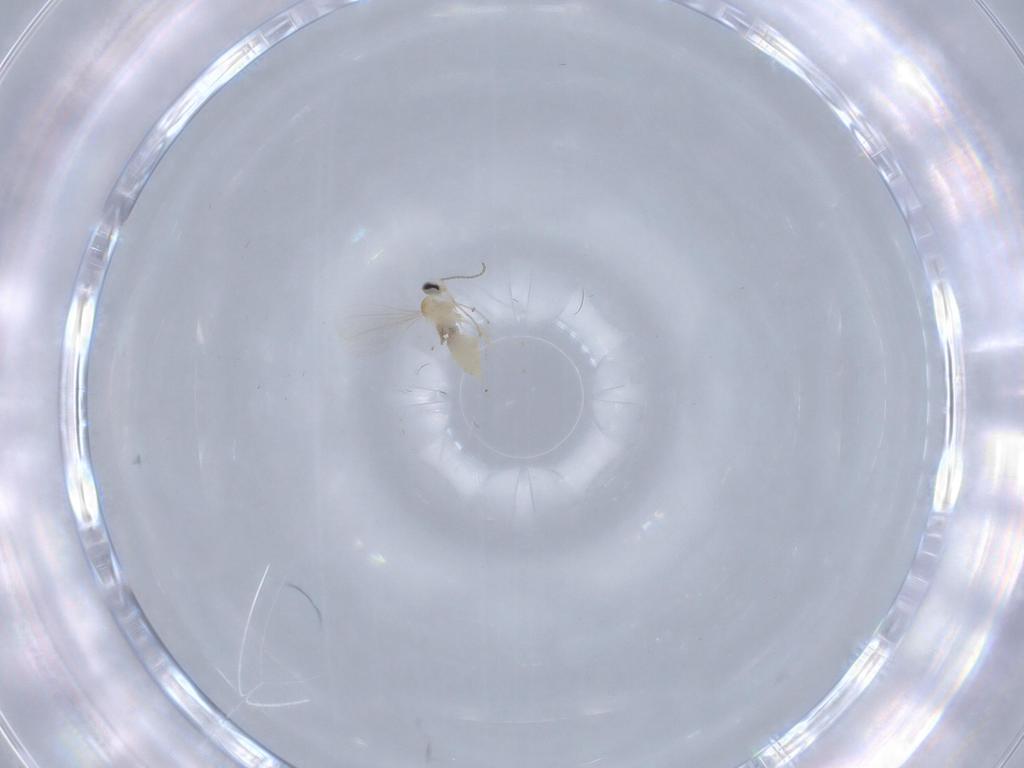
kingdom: Animalia
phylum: Arthropoda
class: Insecta
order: Diptera
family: Cecidomyiidae
